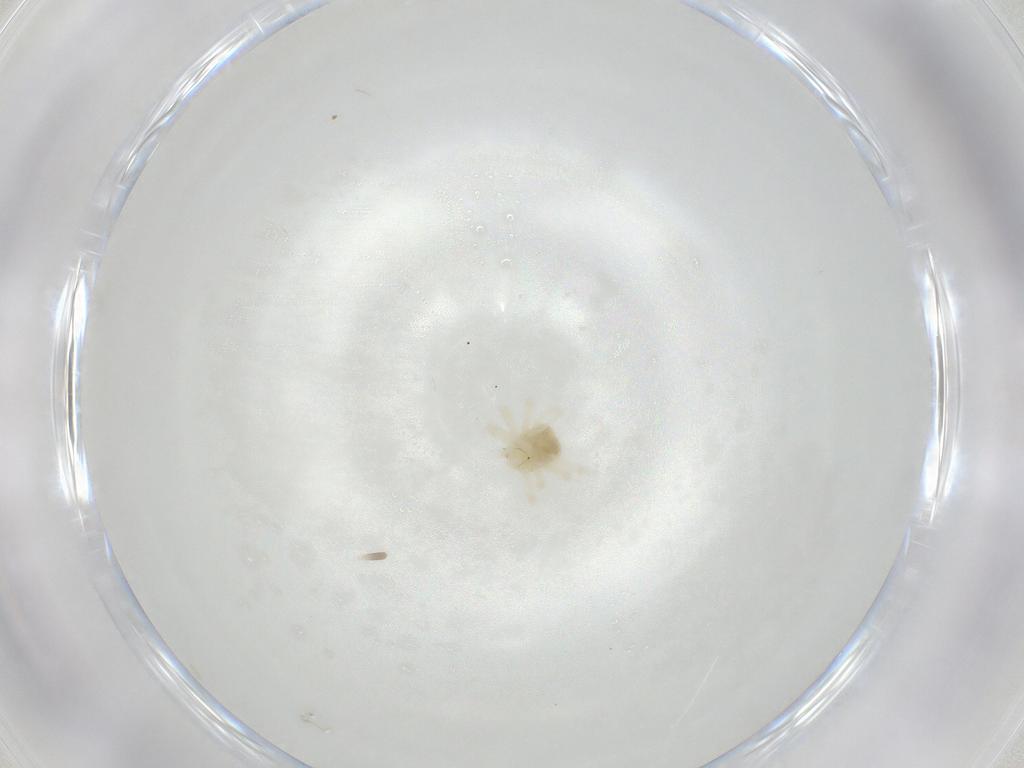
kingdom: Animalia
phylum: Arthropoda
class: Arachnida
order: Trombidiformes
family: Anystidae
